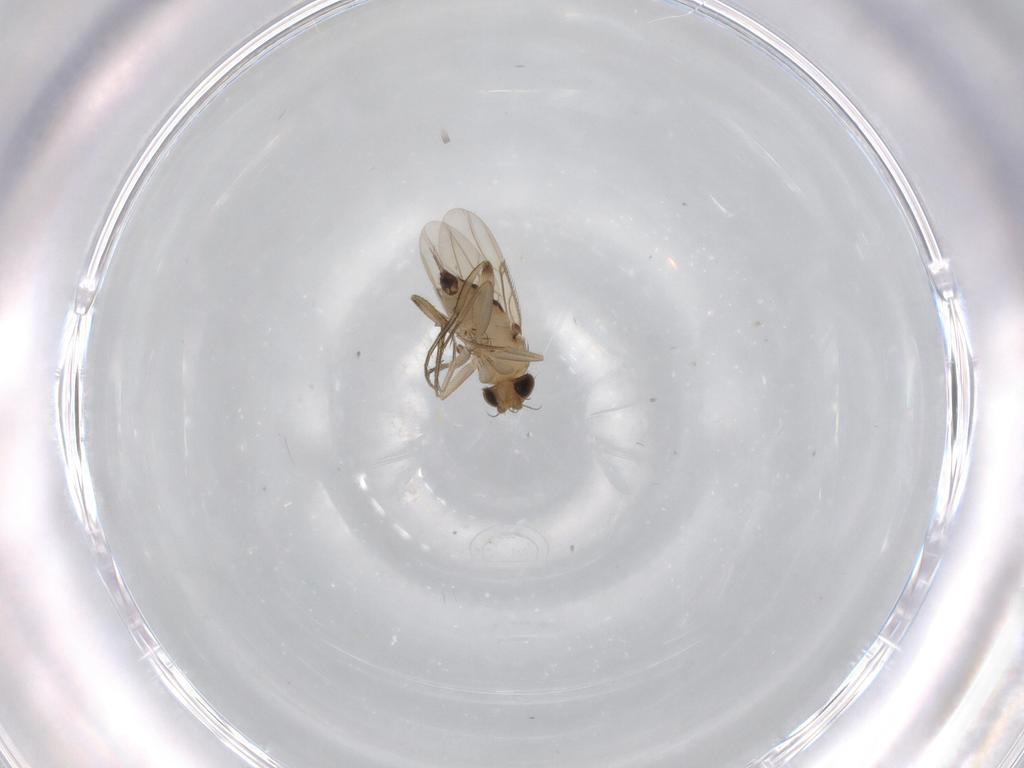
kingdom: Animalia
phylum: Arthropoda
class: Insecta
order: Diptera
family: Phoridae
